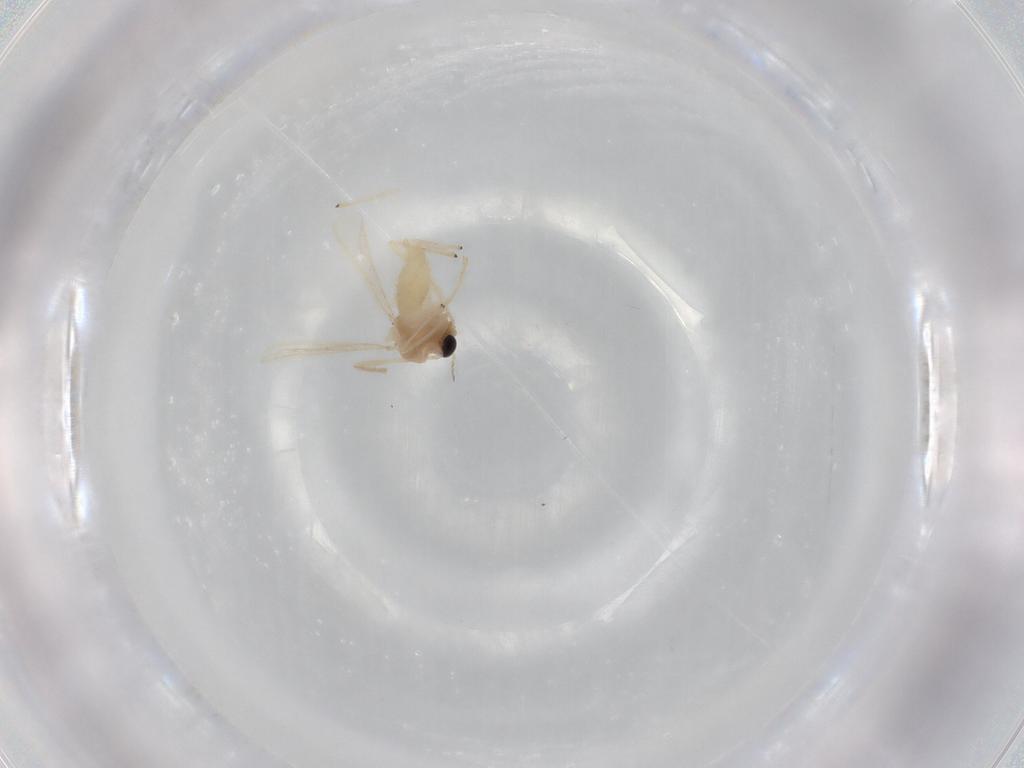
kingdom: Animalia
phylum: Arthropoda
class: Insecta
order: Diptera
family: Chironomidae
